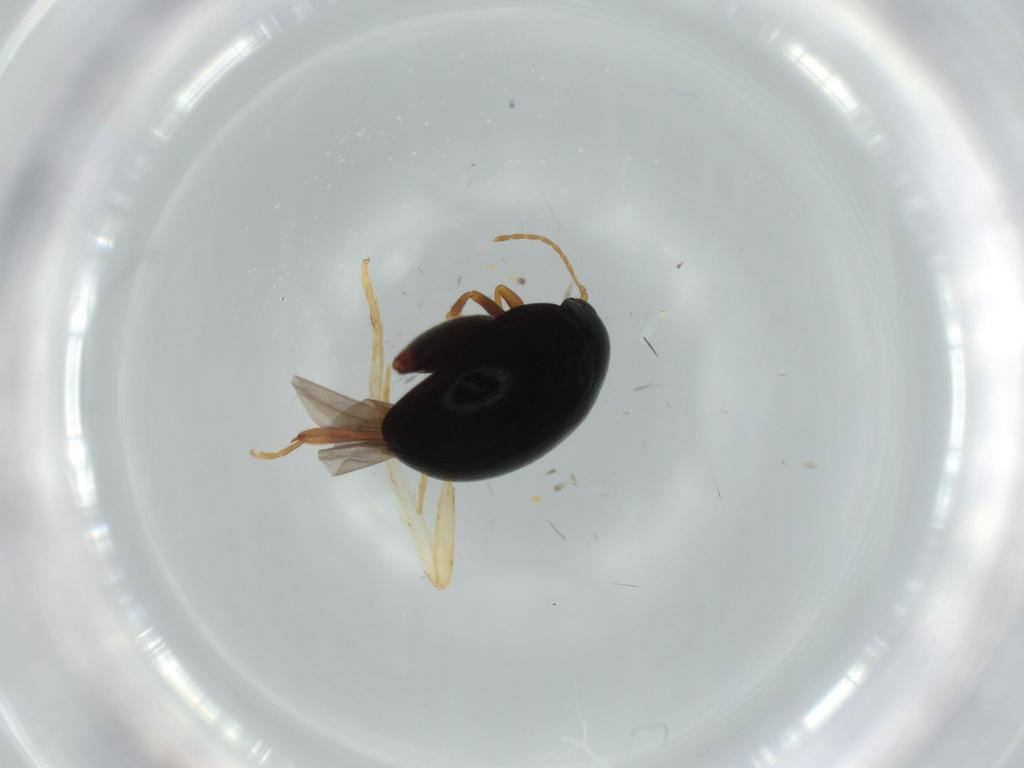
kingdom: Animalia
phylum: Arthropoda
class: Insecta
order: Coleoptera
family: Chrysomelidae
